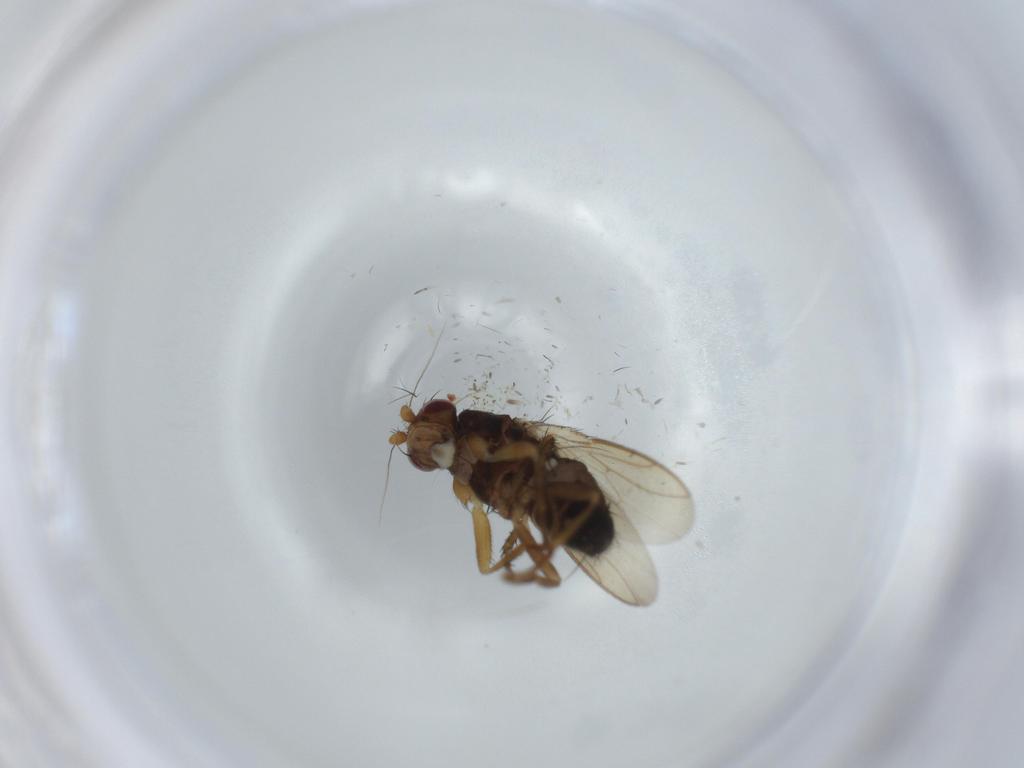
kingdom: Animalia
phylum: Arthropoda
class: Insecta
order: Diptera
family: Sphaeroceridae
